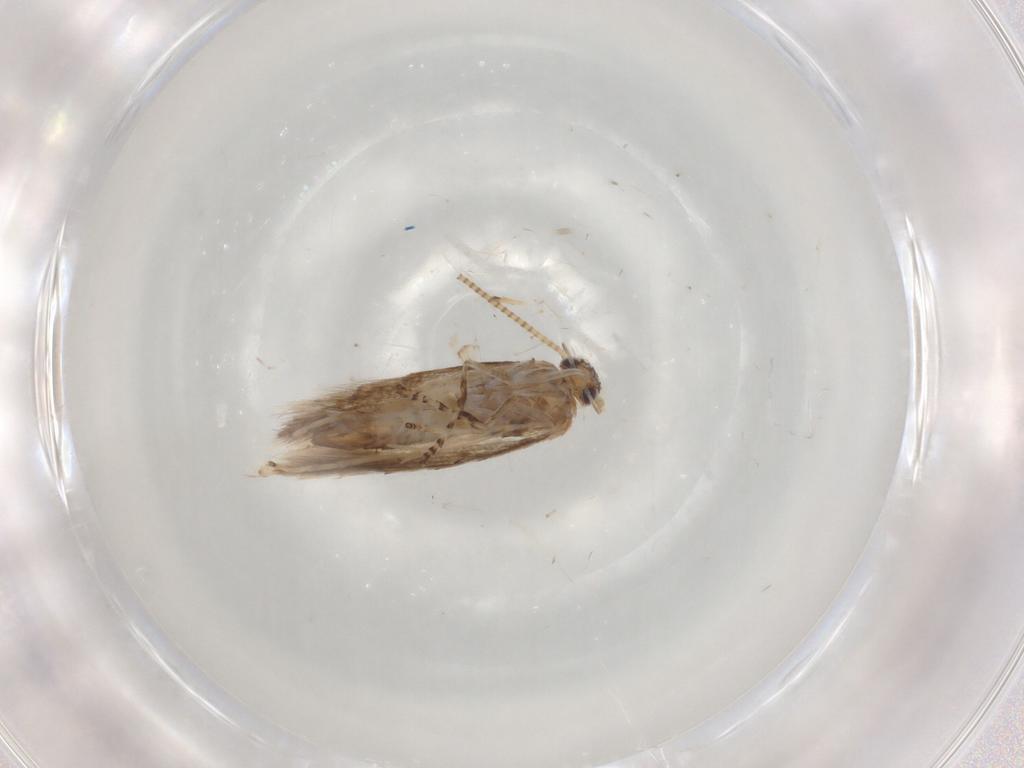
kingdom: Animalia
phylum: Arthropoda
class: Insecta
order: Lepidoptera
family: Gracillariidae
